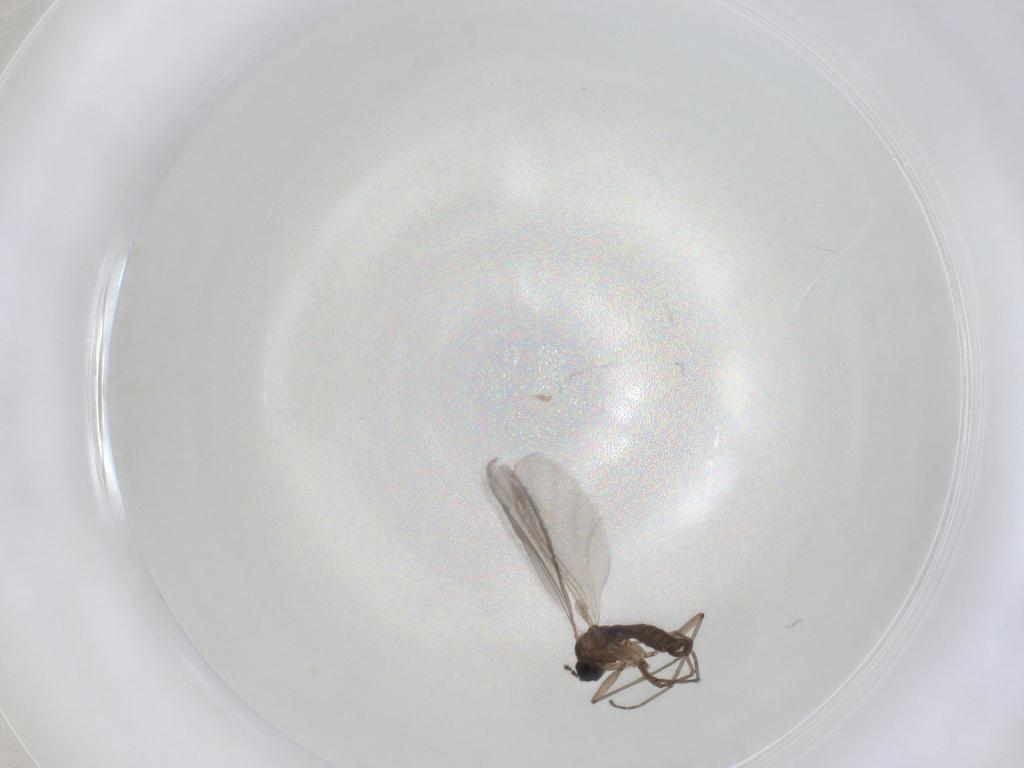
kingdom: Animalia
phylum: Arthropoda
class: Insecta
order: Diptera
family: Sciaridae
